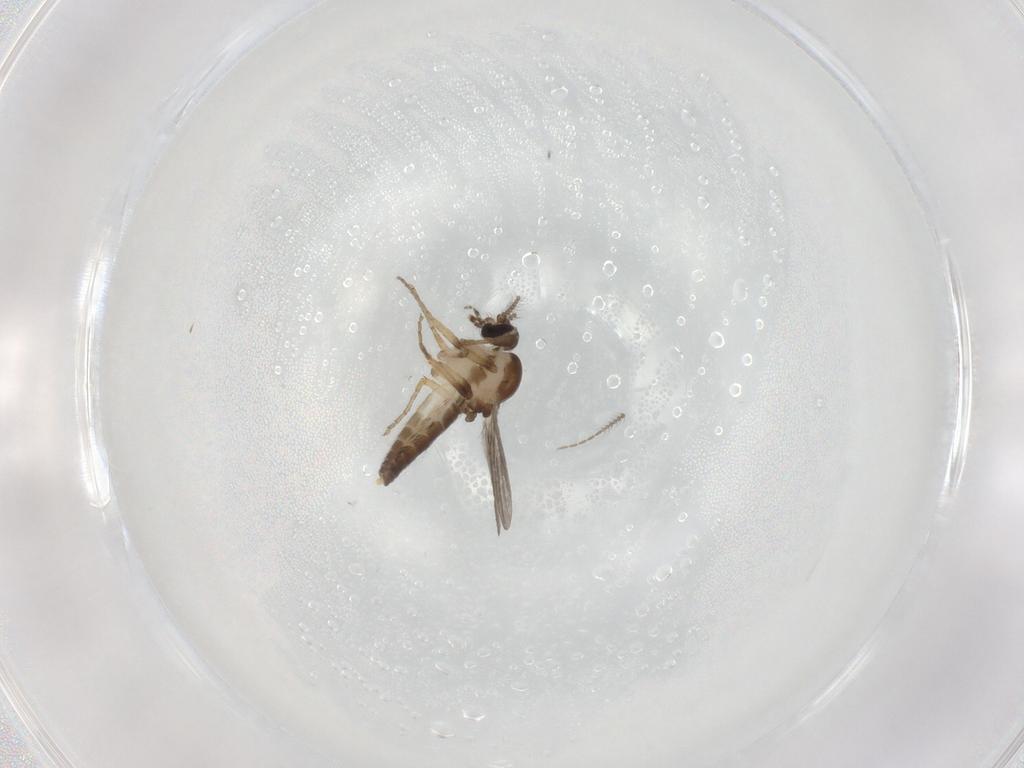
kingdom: Animalia
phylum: Arthropoda
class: Insecta
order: Diptera
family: Ceratopogonidae
